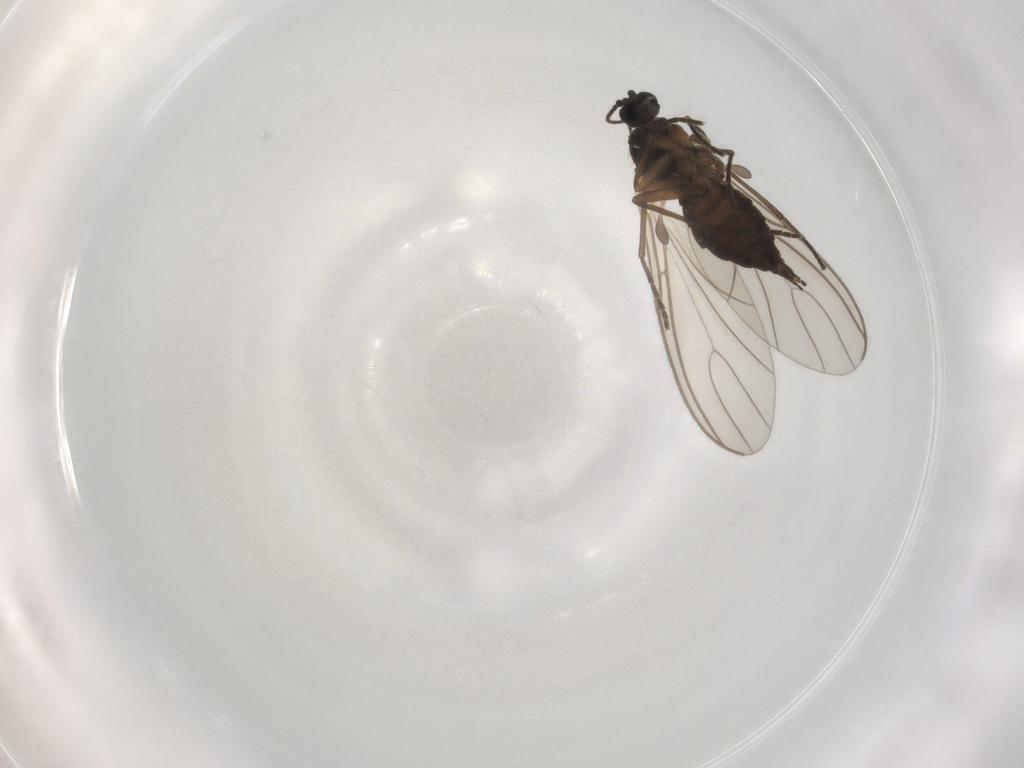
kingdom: Animalia
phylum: Arthropoda
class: Insecta
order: Diptera
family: Sciaridae
